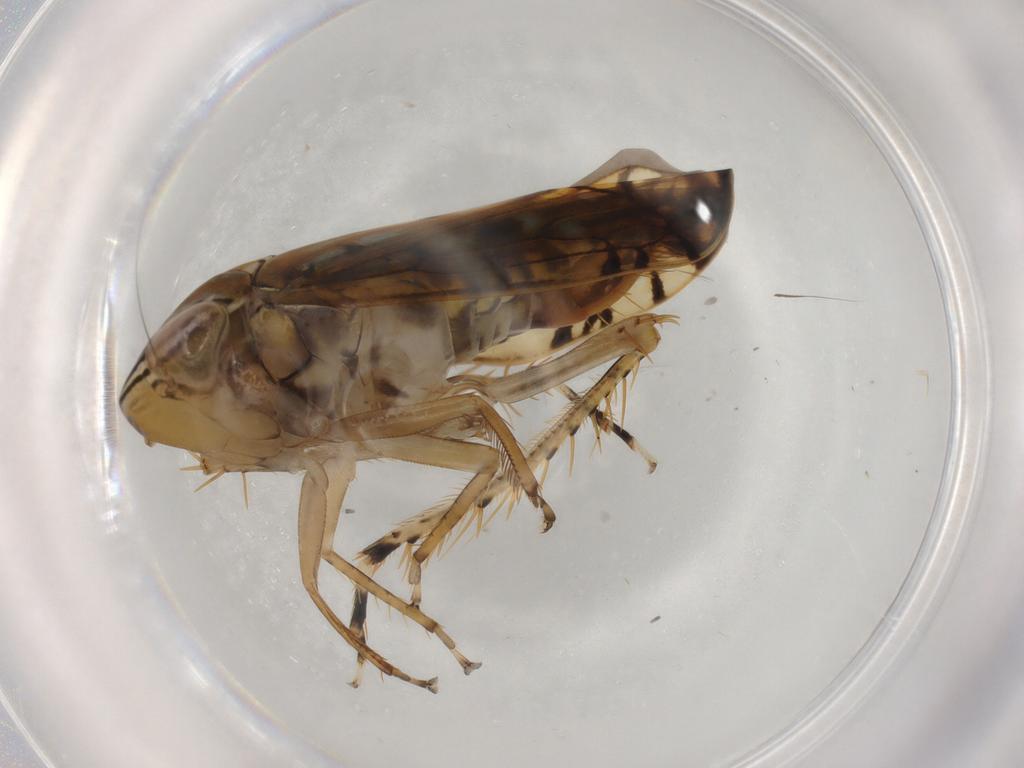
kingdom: Animalia
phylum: Arthropoda
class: Insecta
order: Hemiptera
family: Cicadellidae
